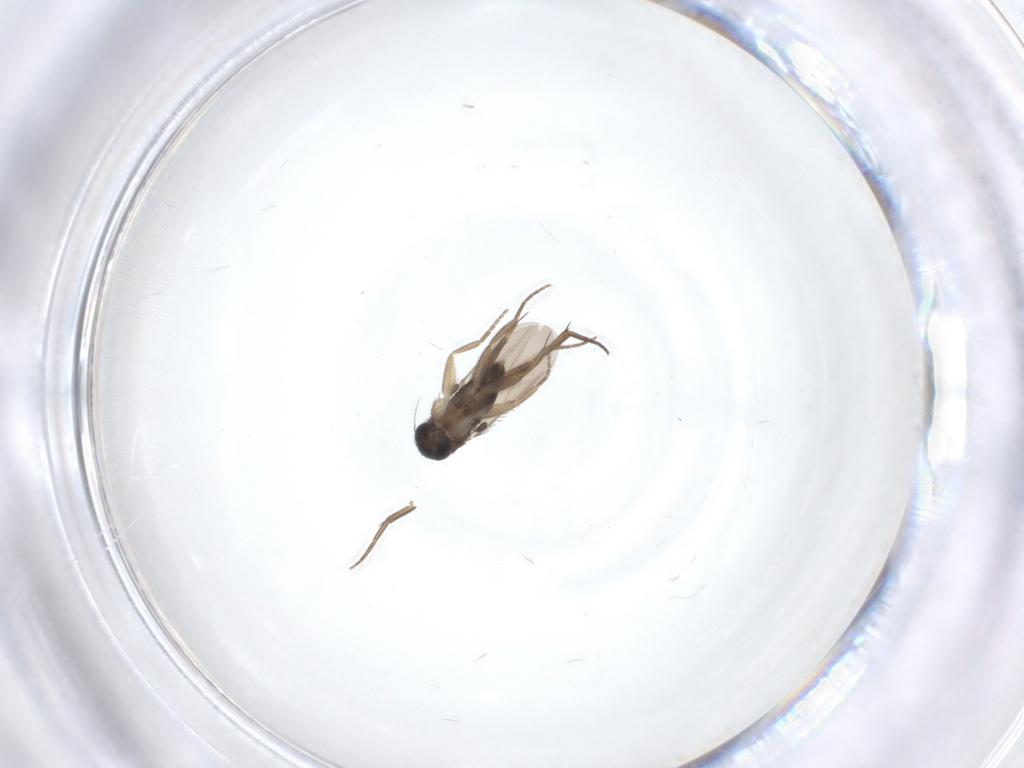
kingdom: Animalia
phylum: Arthropoda
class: Insecta
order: Diptera
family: Phoridae
